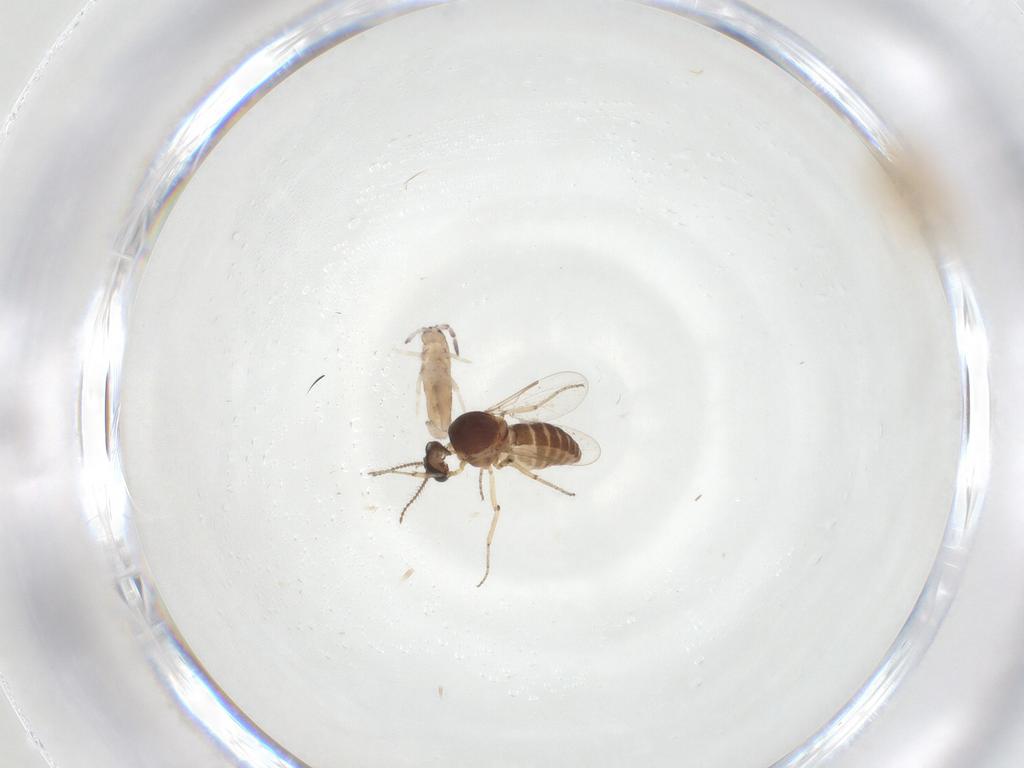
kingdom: Animalia
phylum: Arthropoda
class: Insecta
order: Diptera
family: Ceratopogonidae
